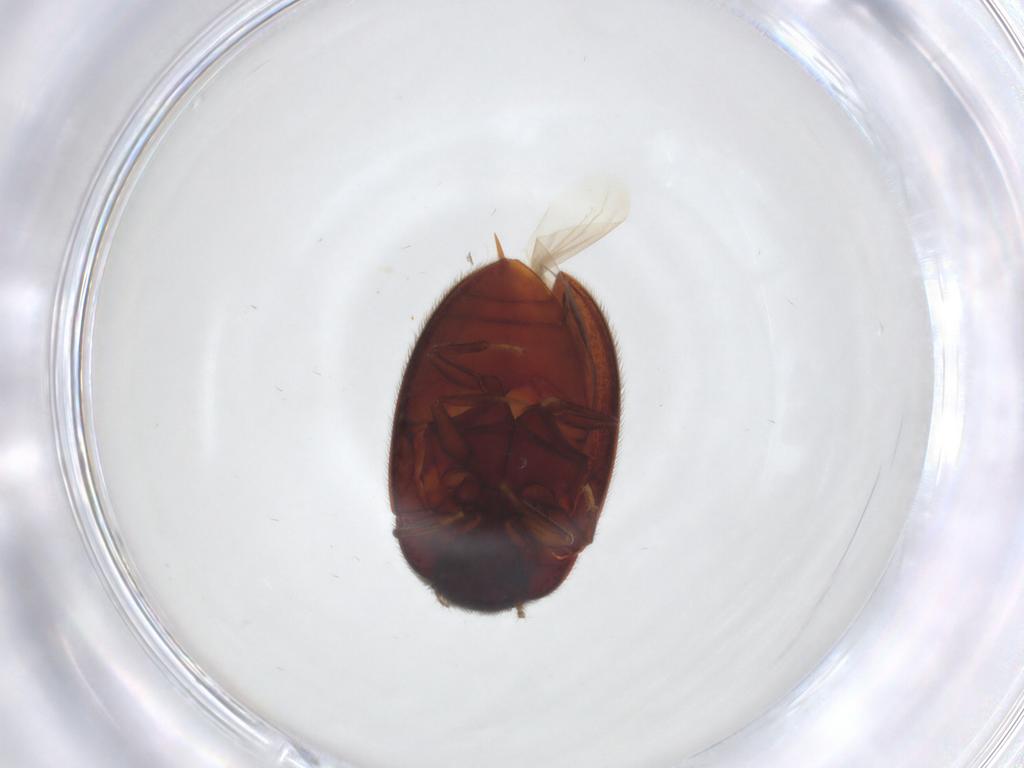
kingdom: Animalia
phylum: Arthropoda
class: Insecta
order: Coleoptera
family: Limnichidae
